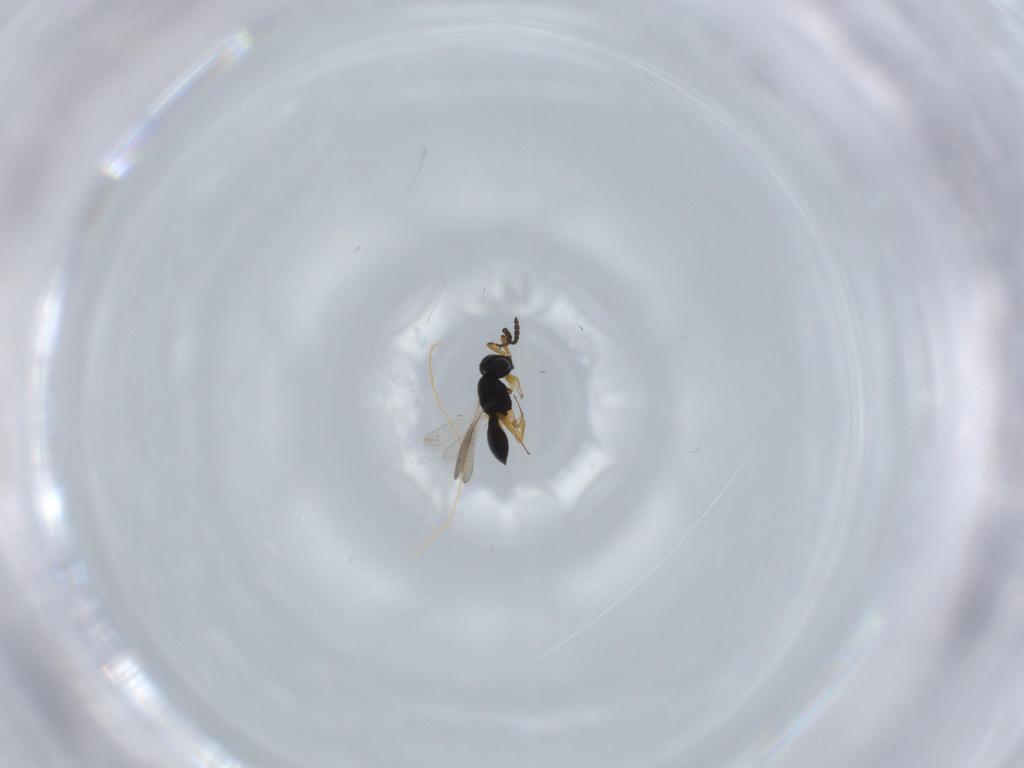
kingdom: Animalia
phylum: Arthropoda
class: Insecta
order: Hymenoptera
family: Scelionidae
